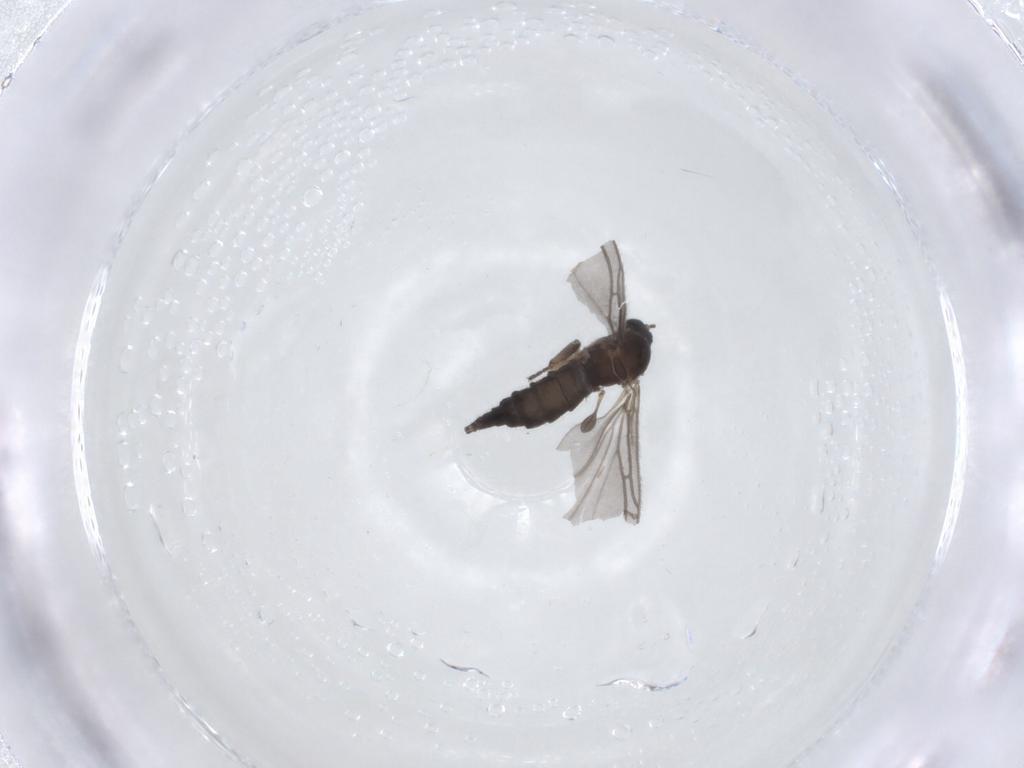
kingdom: Animalia
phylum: Arthropoda
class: Insecta
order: Diptera
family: Sciaridae
